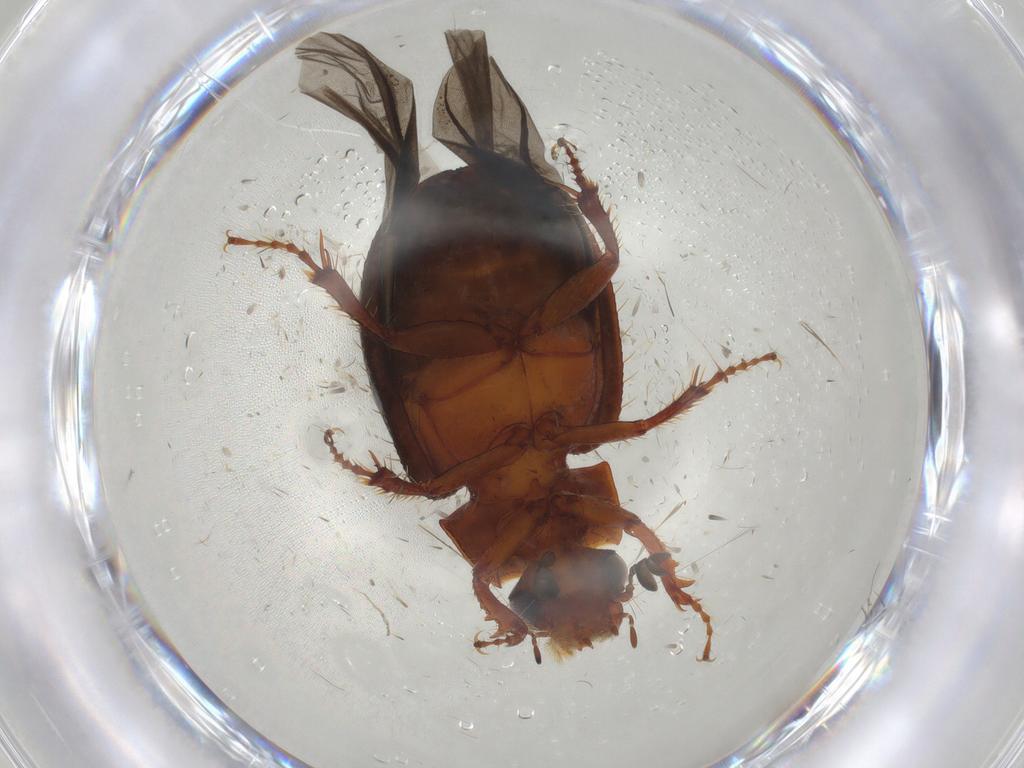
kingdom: Animalia
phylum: Arthropoda
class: Insecta
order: Coleoptera
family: Hybosoridae
